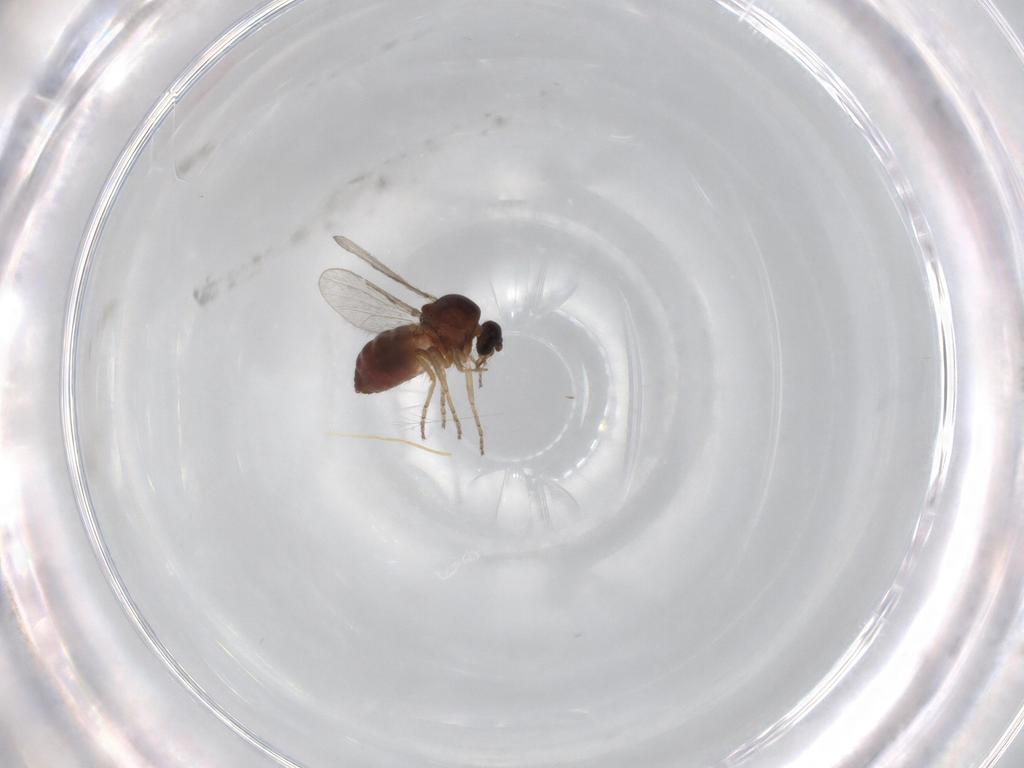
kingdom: Animalia
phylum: Arthropoda
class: Insecta
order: Diptera
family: Ceratopogonidae
